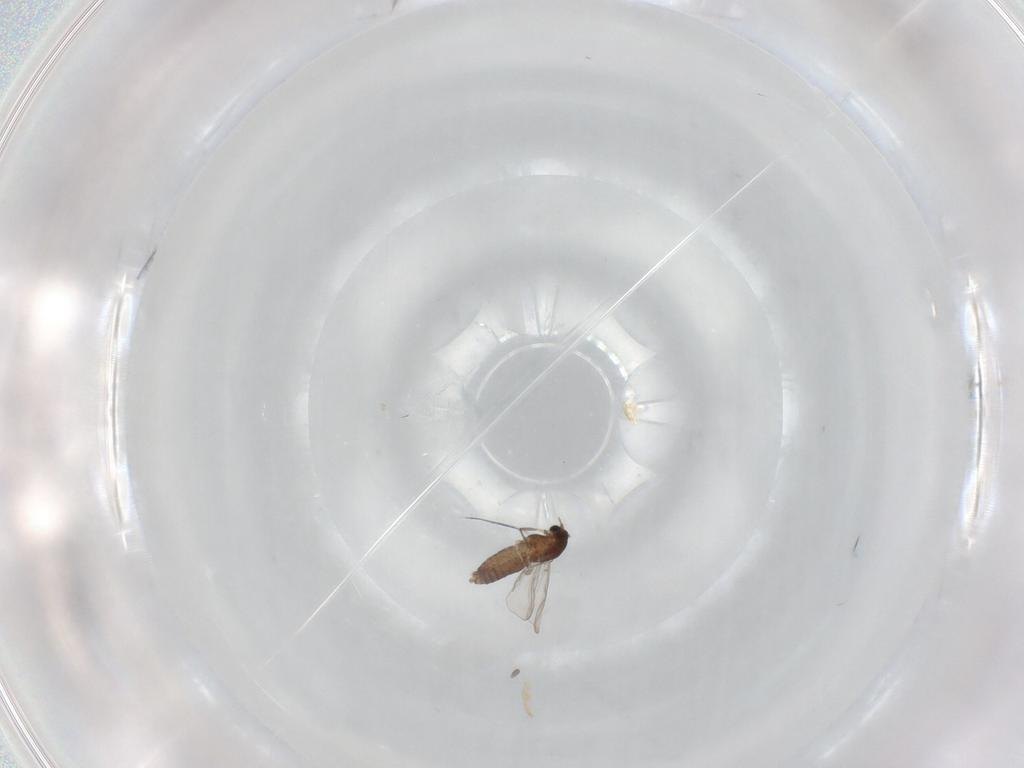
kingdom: Animalia
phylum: Arthropoda
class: Insecta
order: Diptera
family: Chironomidae
